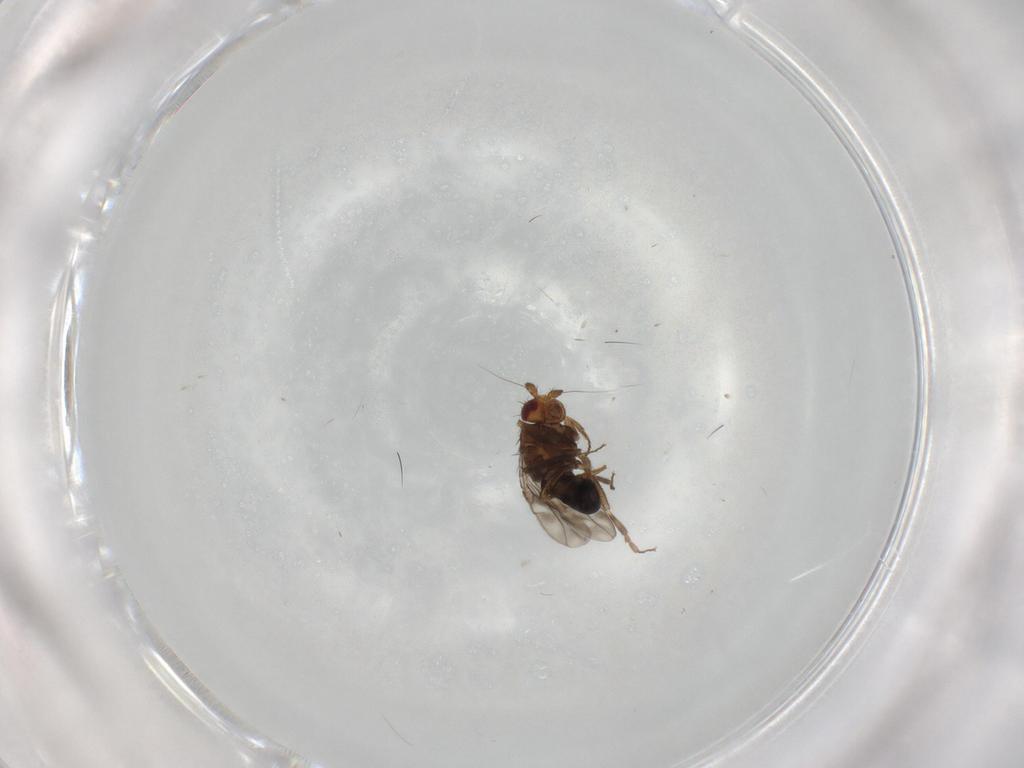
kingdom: Animalia
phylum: Arthropoda
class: Insecta
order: Diptera
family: Sphaeroceridae
